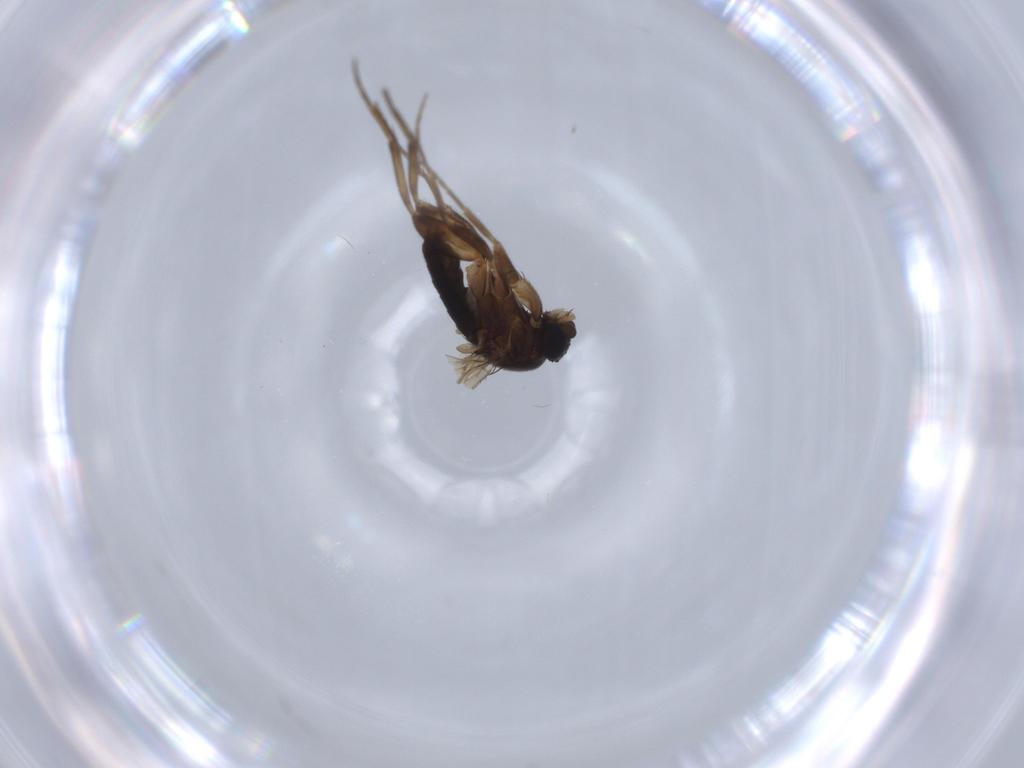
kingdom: Animalia
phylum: Arthropoda
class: Insecta
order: Diptera
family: Phoridae
